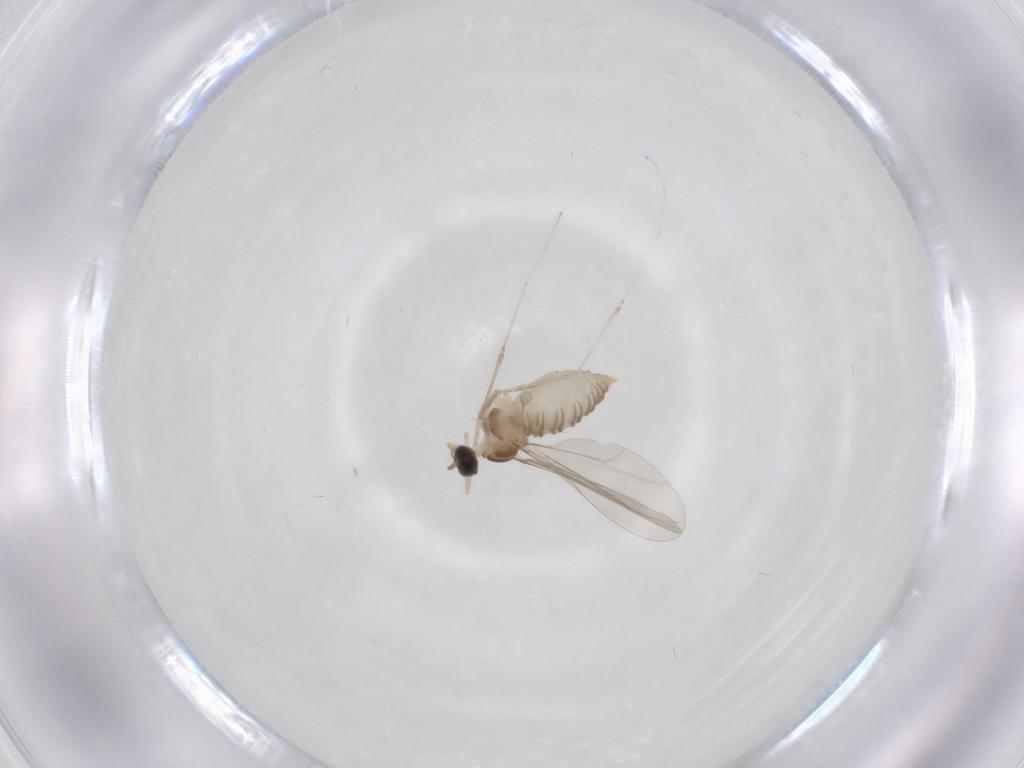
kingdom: Animalia
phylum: Arthropoda
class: Insecta
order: Diptera
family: Cecidomyiidae
